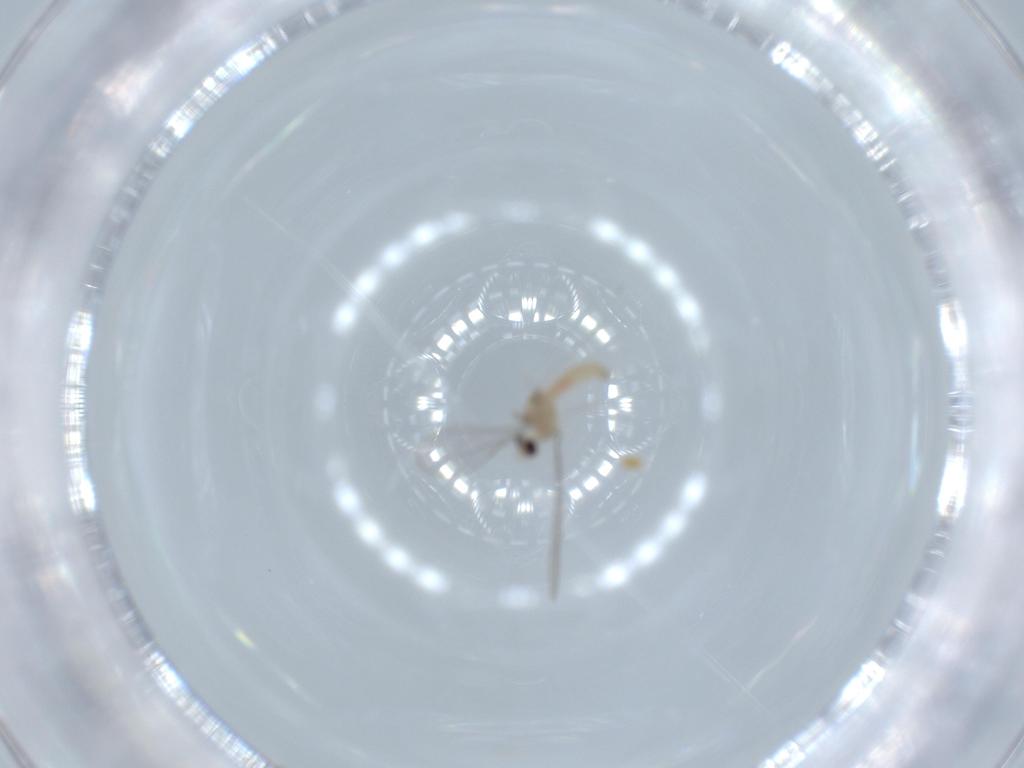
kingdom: Animalia
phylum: Arthropoda
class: Insecta
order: Diptera
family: Cecidomyiidae
